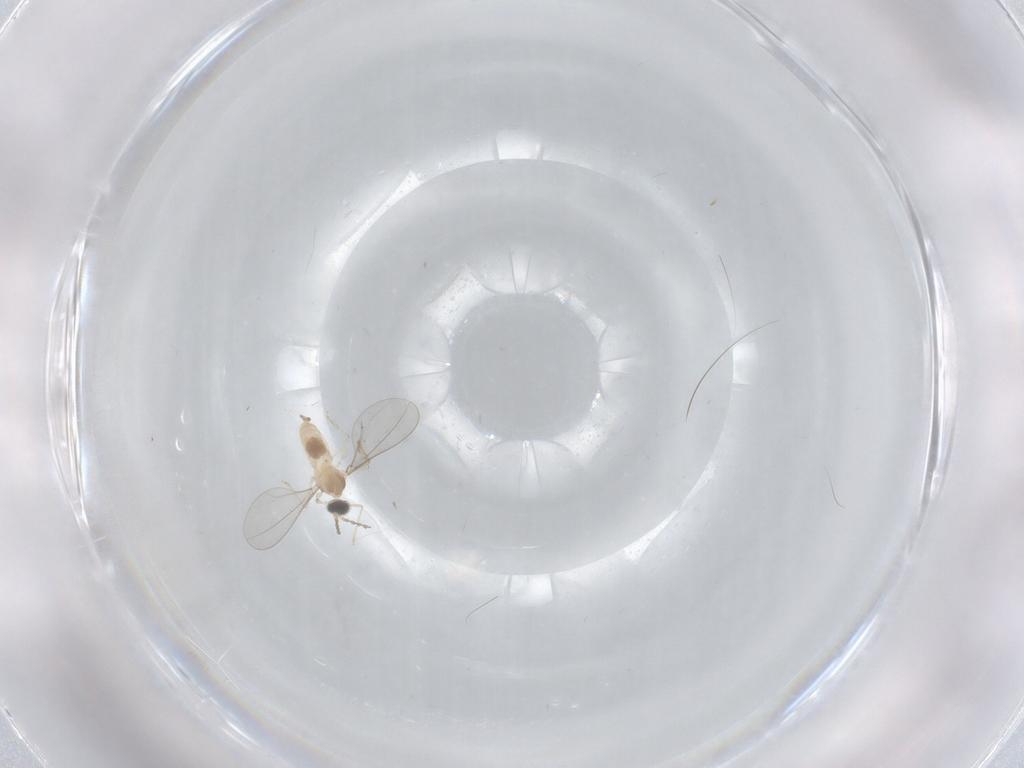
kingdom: Animalia
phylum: Arthropoda
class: Insecta
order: Diptera
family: Cecidomyiidae
